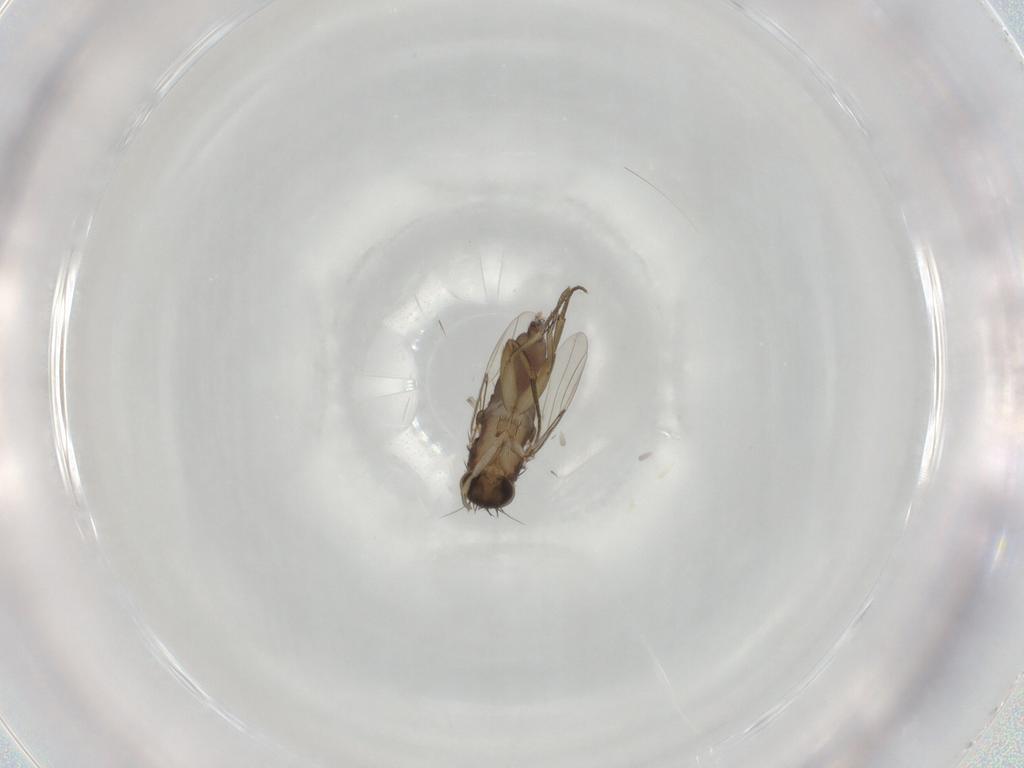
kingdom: Animalia
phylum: Arthropoda
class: Insecta
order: Diptera
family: Phoridae
